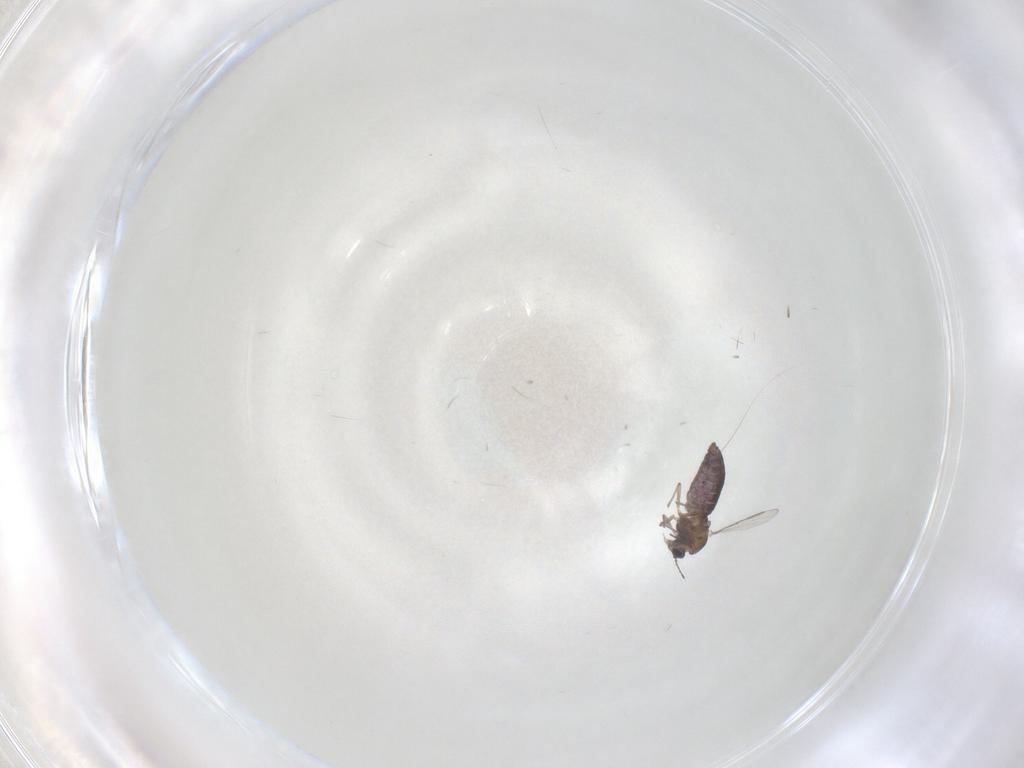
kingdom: Animalia
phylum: Arthropoda
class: Insecta
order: Diptera
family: Chironomidae
